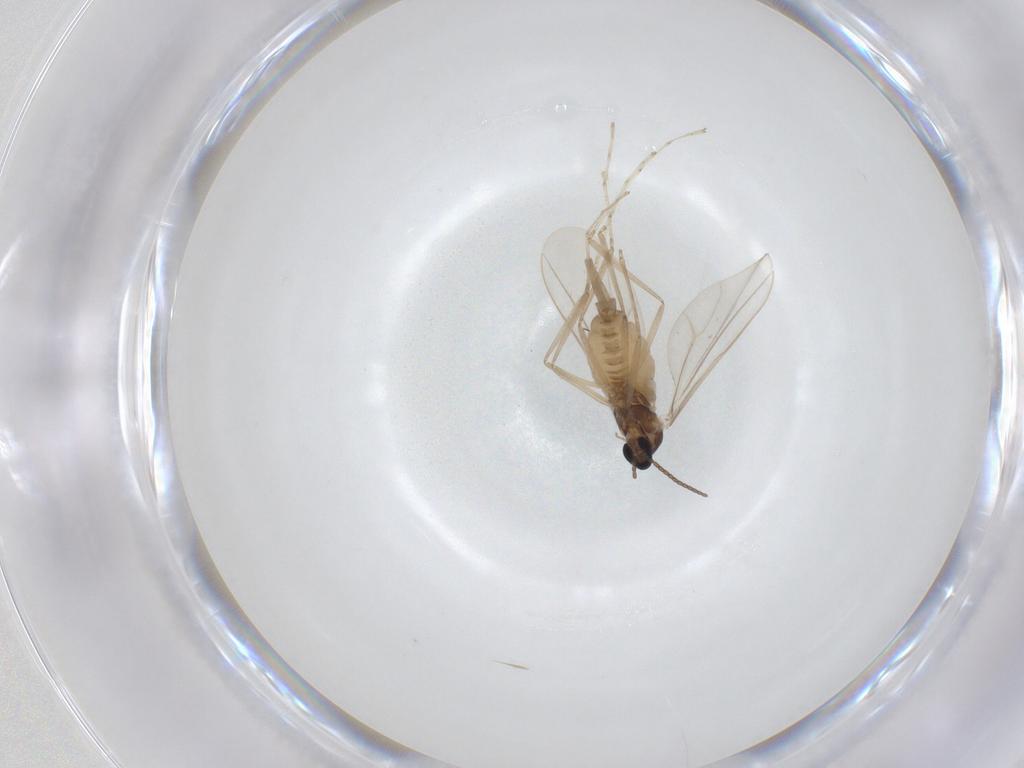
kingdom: Animalia
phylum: Arthropoda
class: Insecta
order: Diptera
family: Cecidomyiidae
